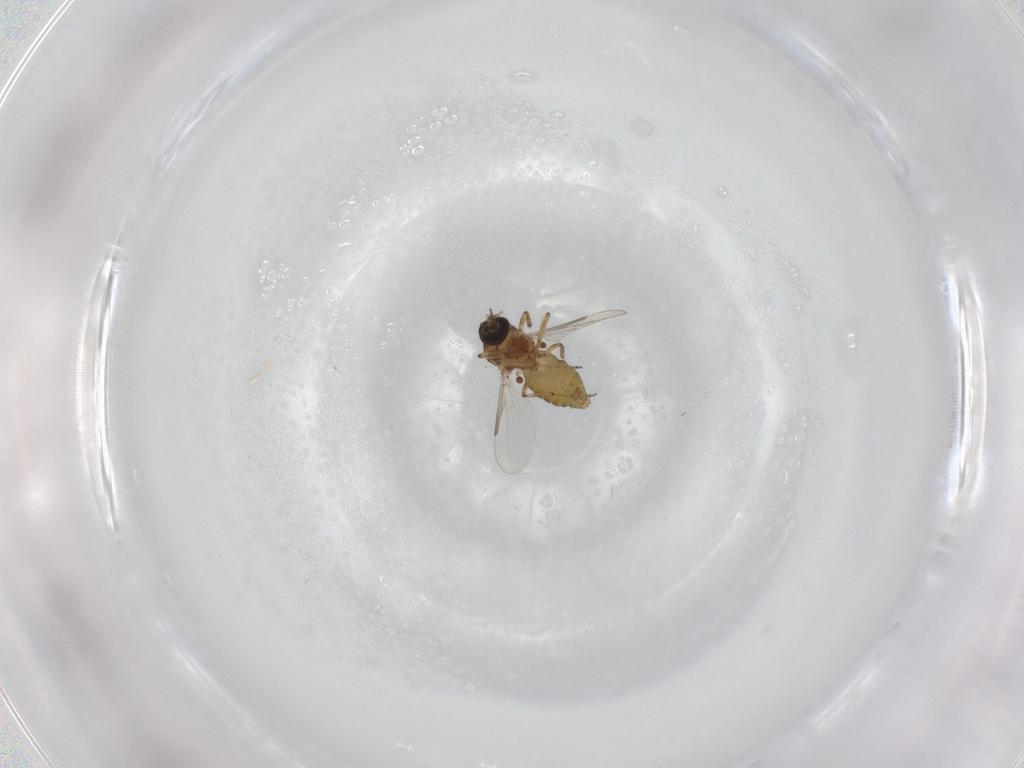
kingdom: Animalia
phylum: Arthropoda
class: Insecta
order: Diptera
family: Ceratopogonidae
